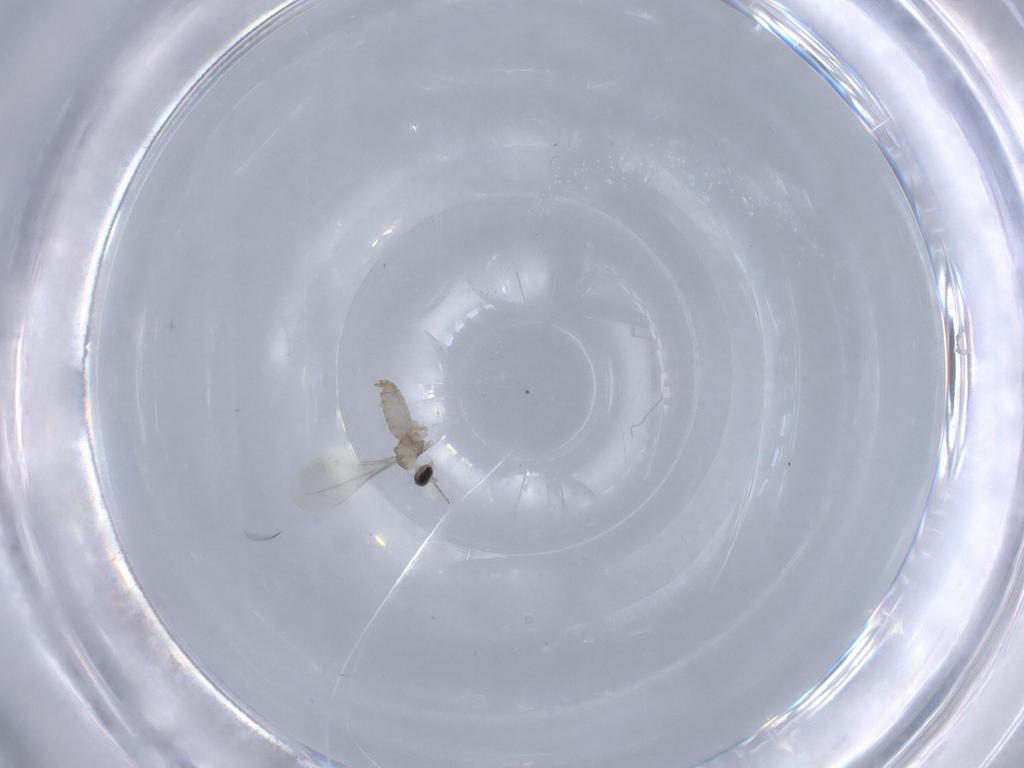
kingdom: Animalia
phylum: Arthropoda
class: Insecta
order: Diptera
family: Cecidomyiidae
